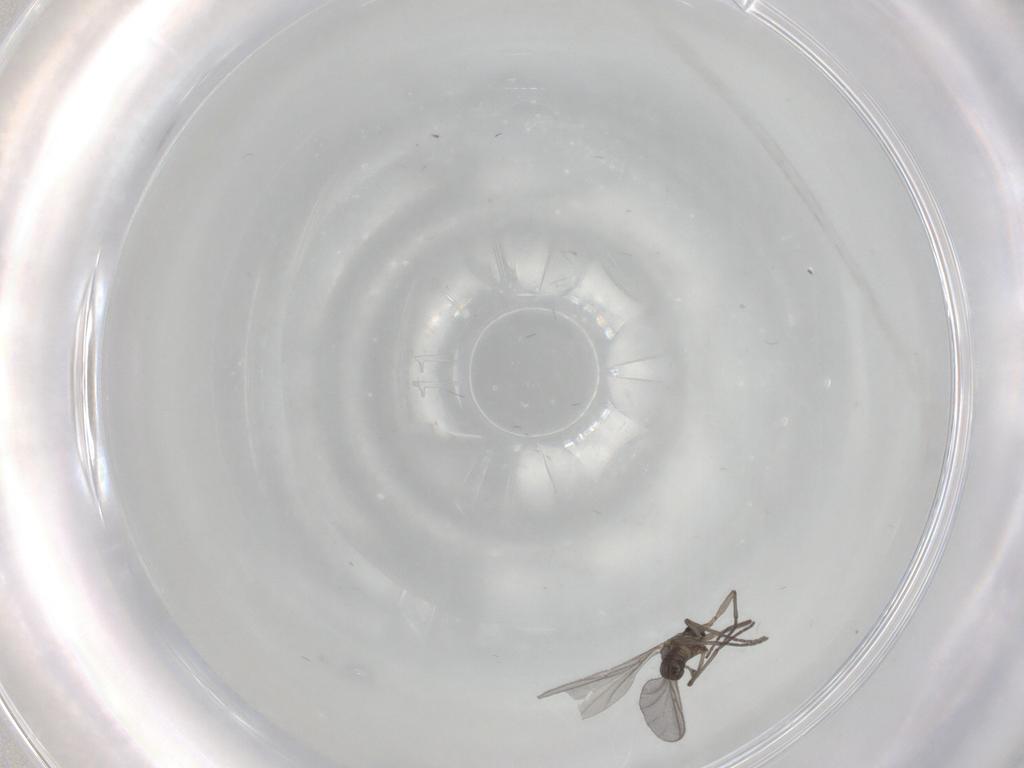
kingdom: Animalia
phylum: Arthropoda
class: Insecta
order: Diptera
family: Sciaridae
